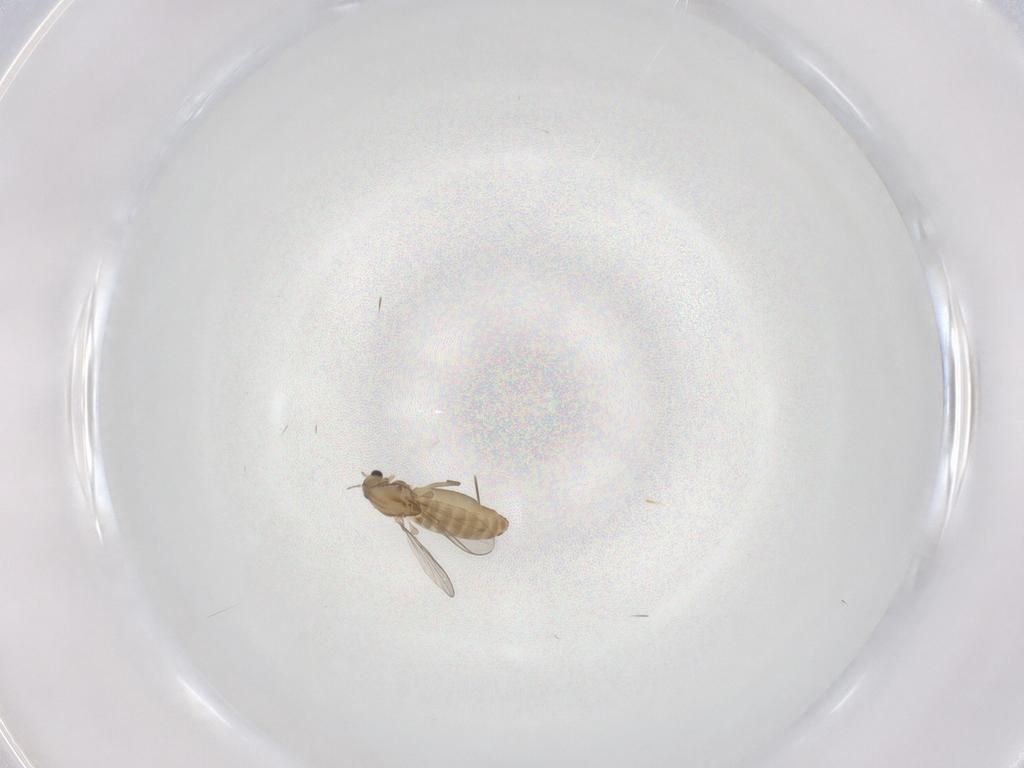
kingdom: Animalia
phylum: Arthropoda
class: Insecta
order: Diptera
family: Chironomidae
